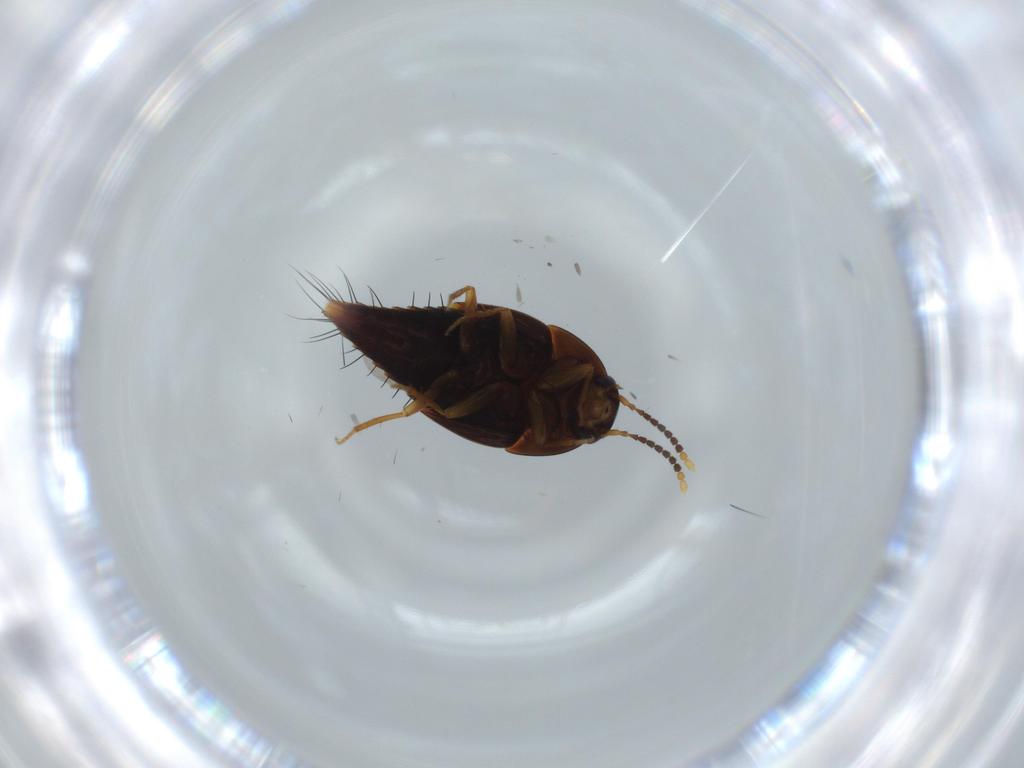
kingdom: Animalia
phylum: Arthropoda
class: Insecta
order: Coleoptera
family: Staphylinidae
